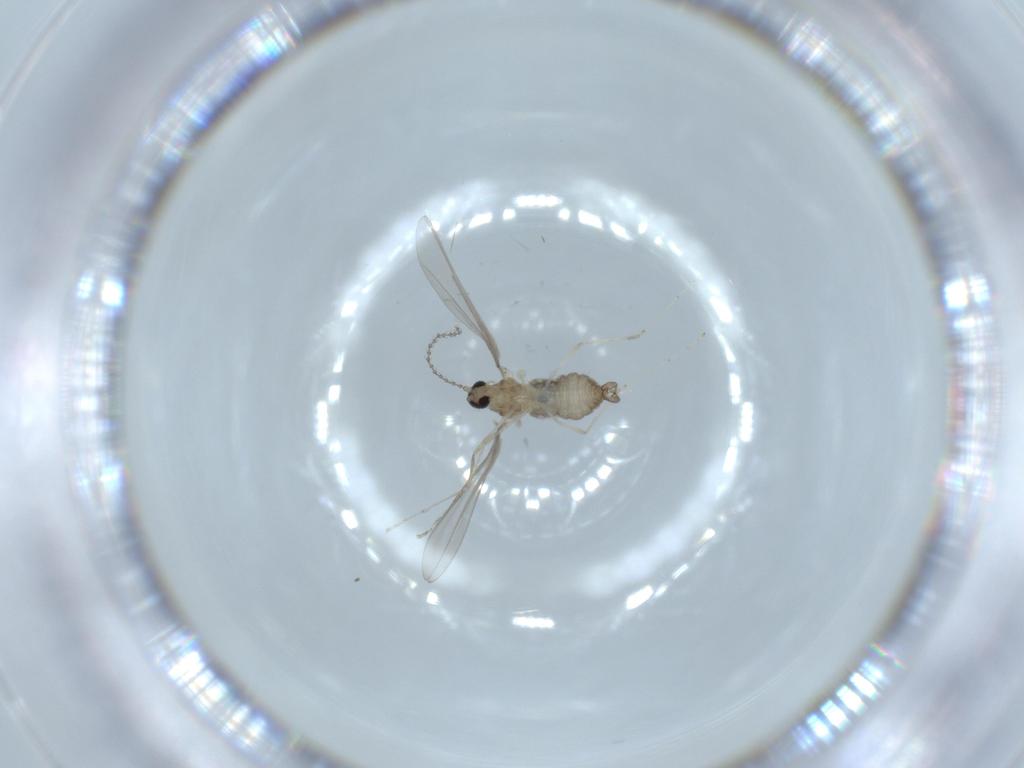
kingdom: Animalia
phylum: Arthropoda
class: Insecta
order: Diptera
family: Cecidomyiidae
